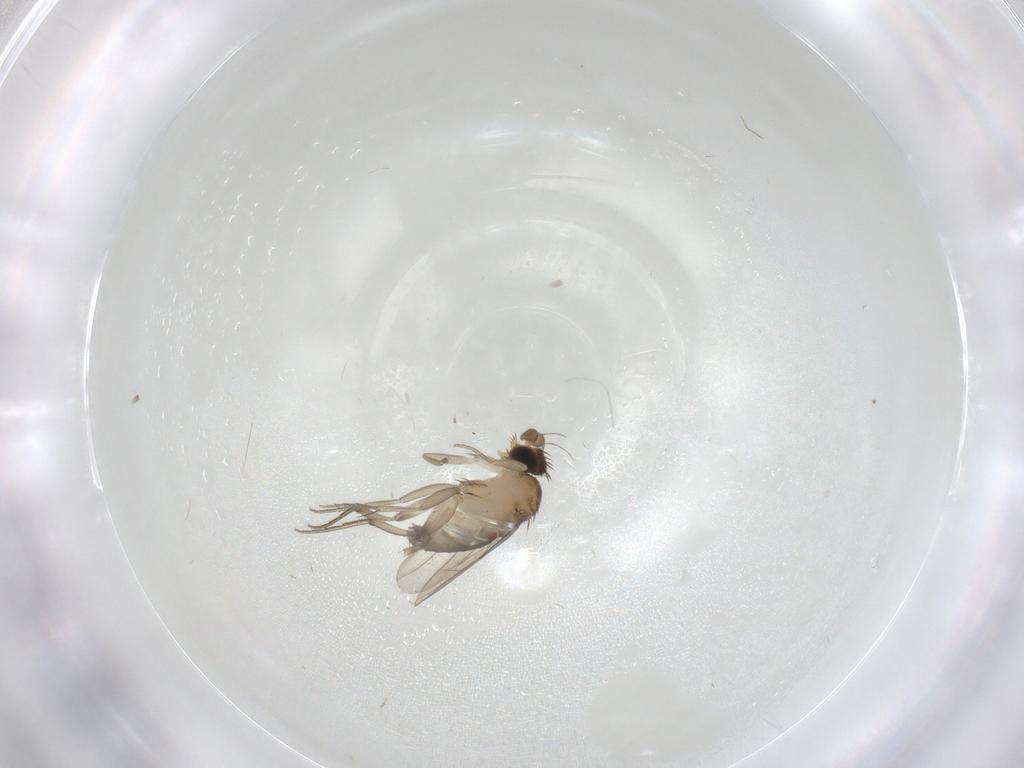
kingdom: Animalia
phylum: Arthropoda
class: Insecta
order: Diptera
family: Phoridae
